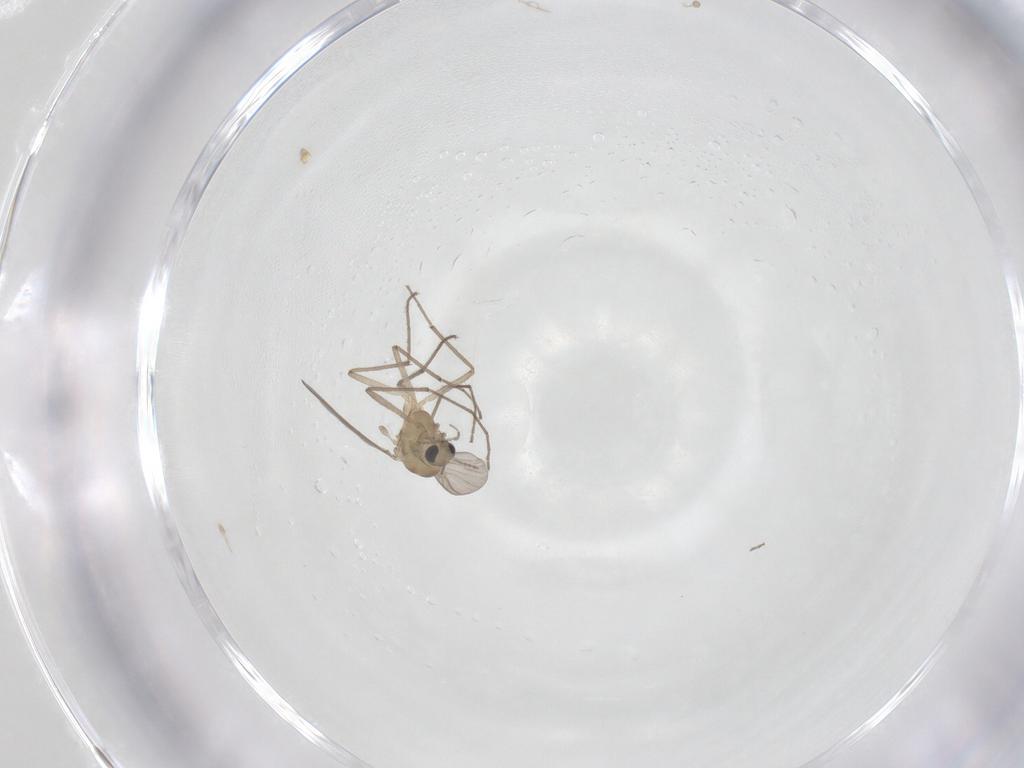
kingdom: Animalia
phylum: Arthropoda
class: Insecta
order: Diptera
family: Chironomidae
